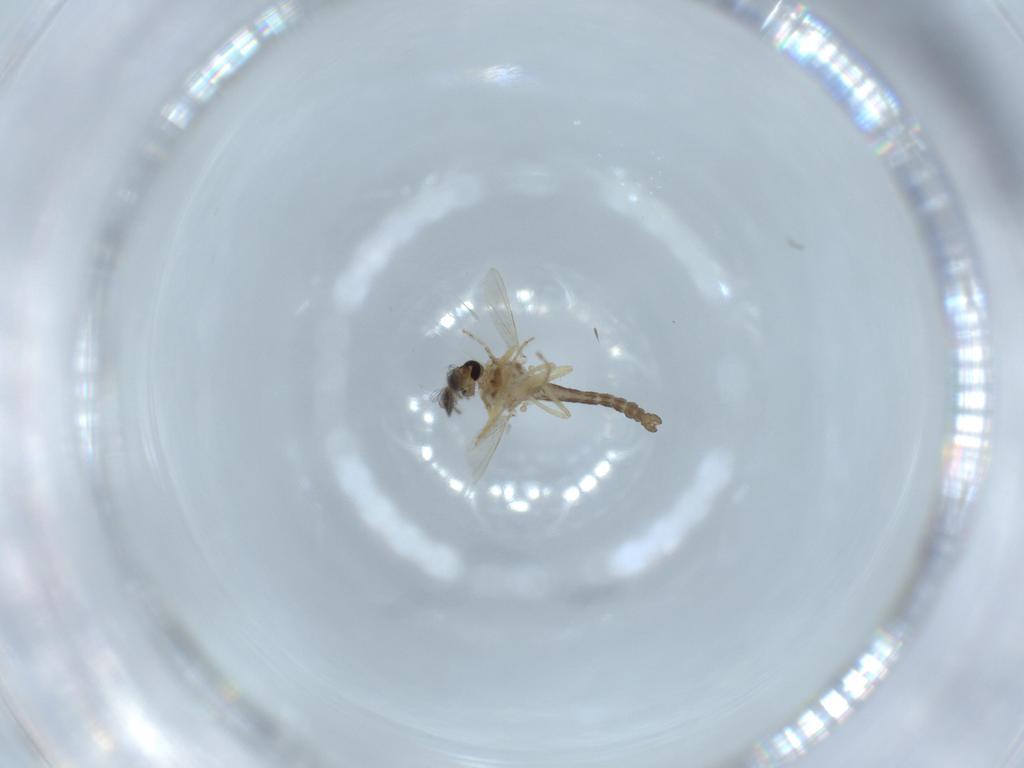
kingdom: Animalia
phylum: Arthropoda
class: Insecta
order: Diptera
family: Ceratopogonidae
